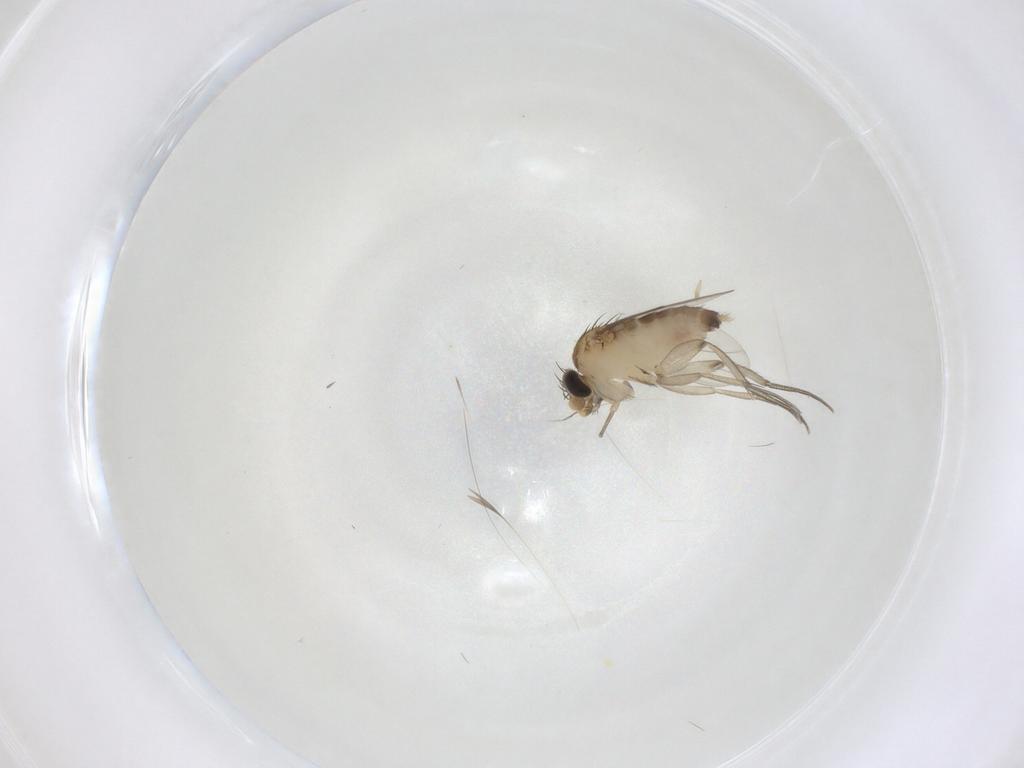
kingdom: Animalia
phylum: Arthropoda
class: Insecta
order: Diptera
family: Phoridae
